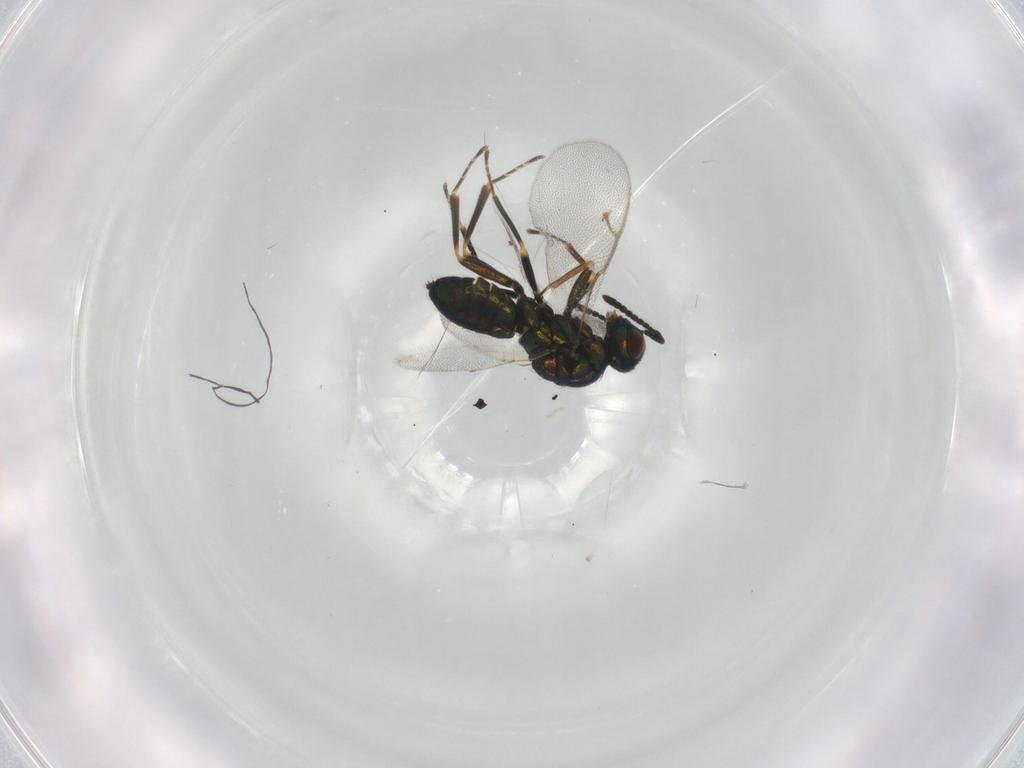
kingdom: Animalia
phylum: Arthropoda
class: Insecta
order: Hymenoptera
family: Pteromalidae
